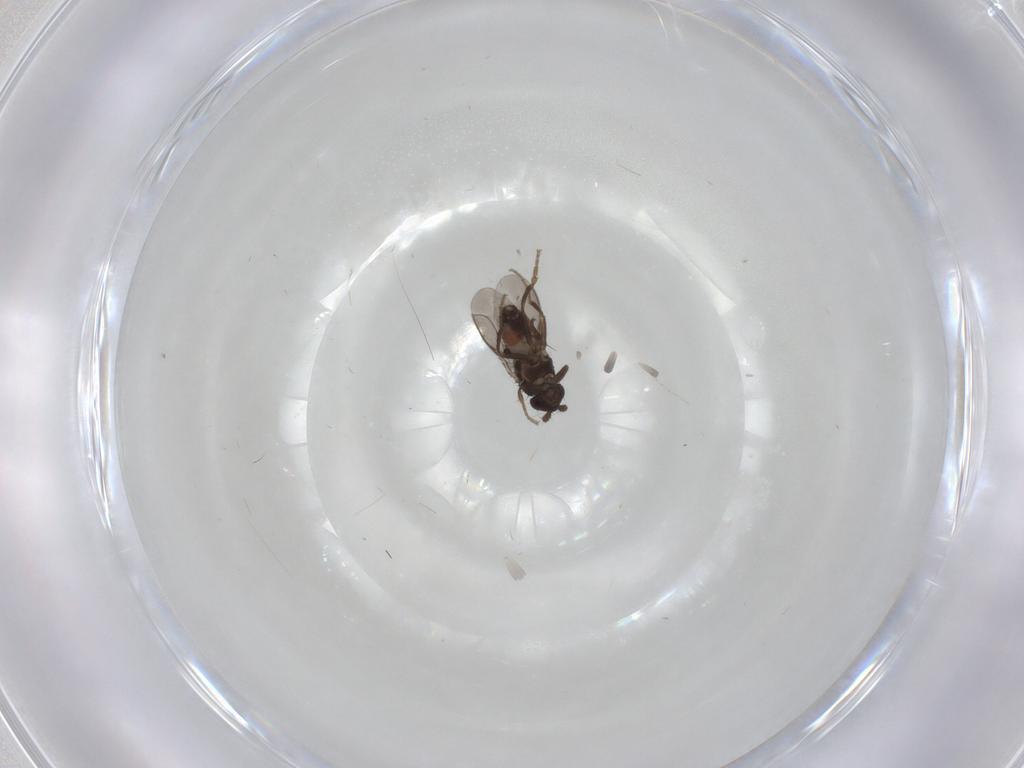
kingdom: Animalia
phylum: Arthropoda
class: Insecta
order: Diptera
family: Sphaeroceridae
